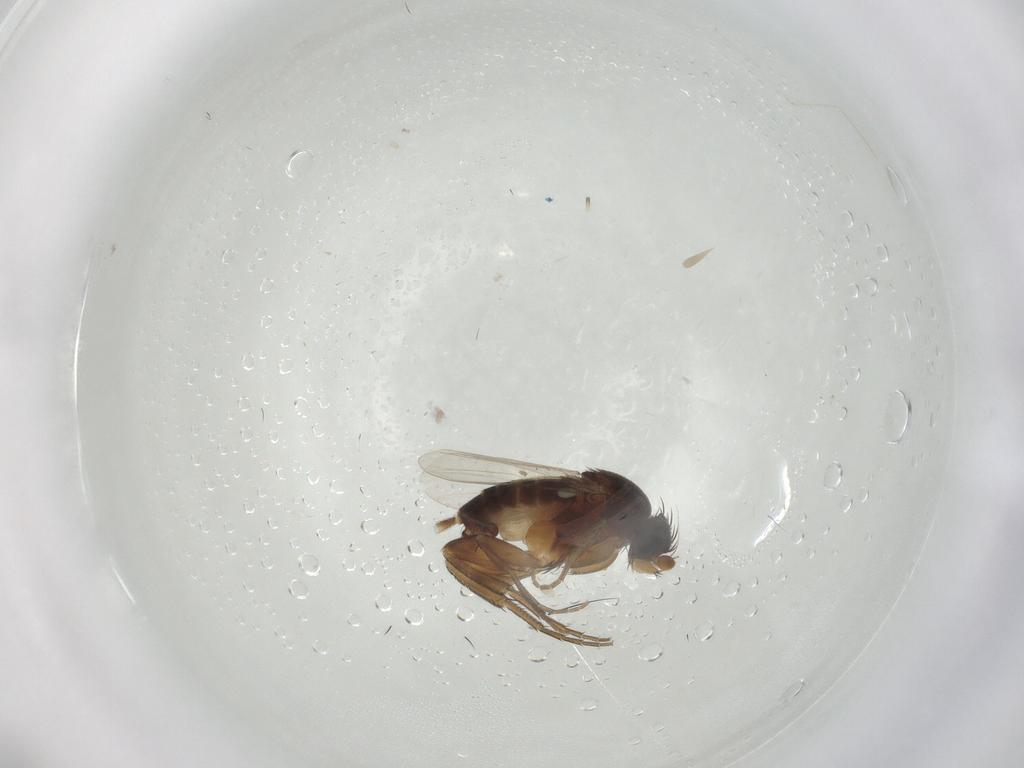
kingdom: Animalia
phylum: Arthropoda
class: Insecta
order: Diptera
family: Phoridae
